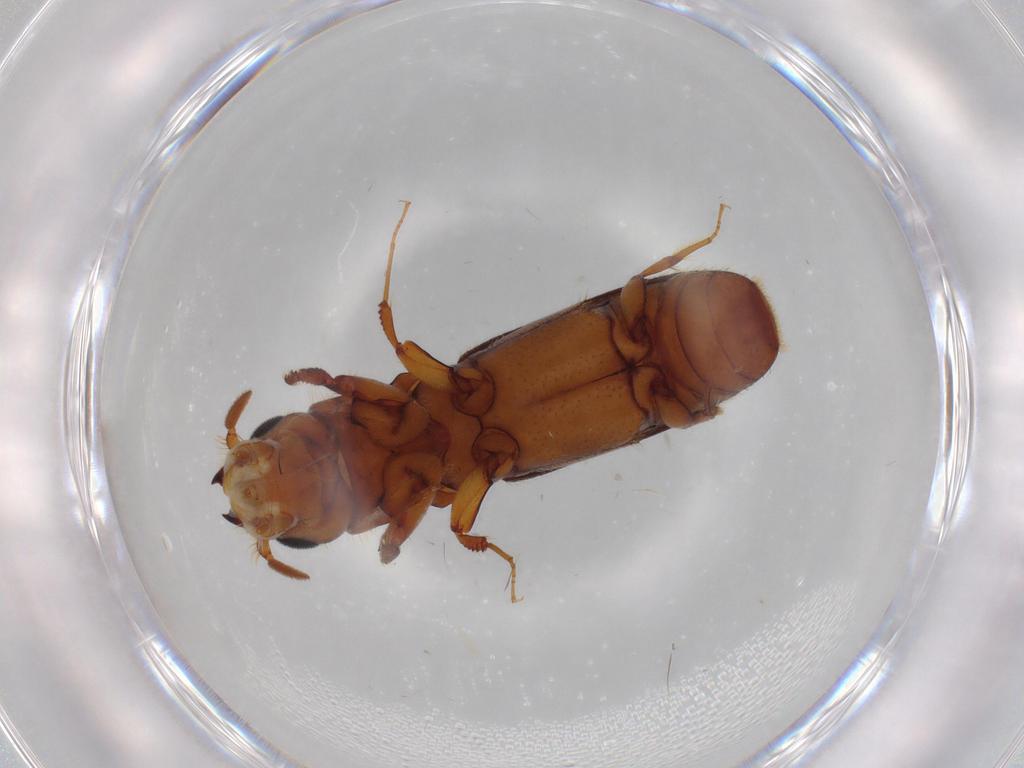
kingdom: Animalia
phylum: Arthropoda
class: Insecta
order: Coleoptera
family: Curculionidae
